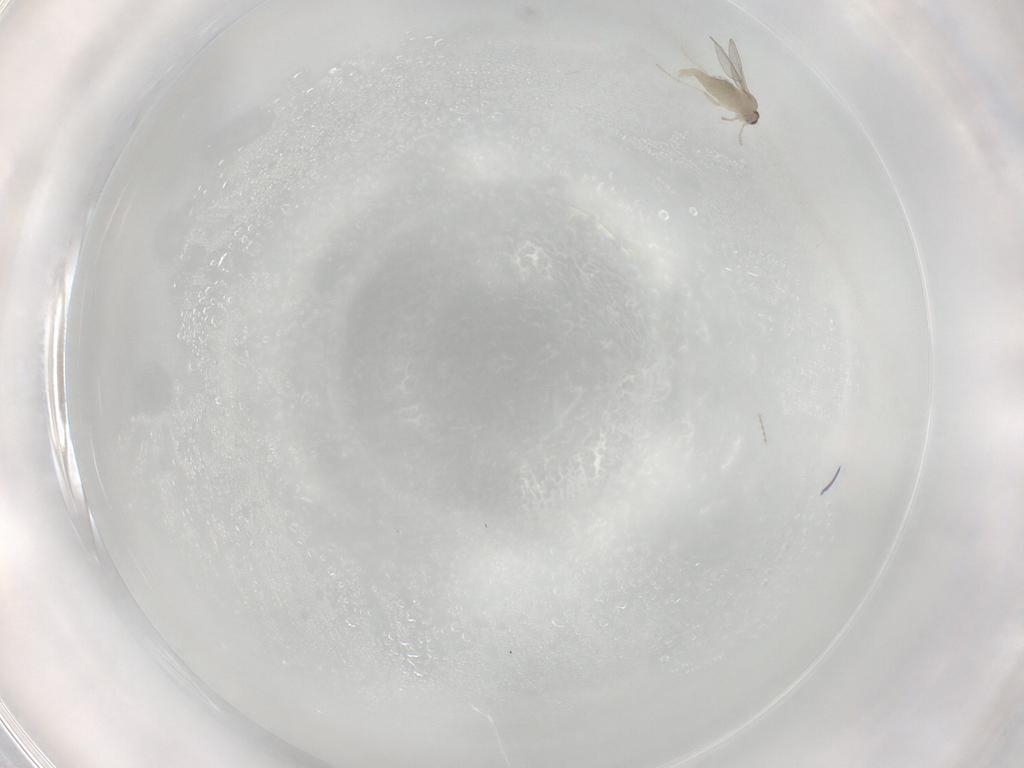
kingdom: Animalia
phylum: Arthropoda
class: Insecta
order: Diptera
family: Cecidomyiidae
